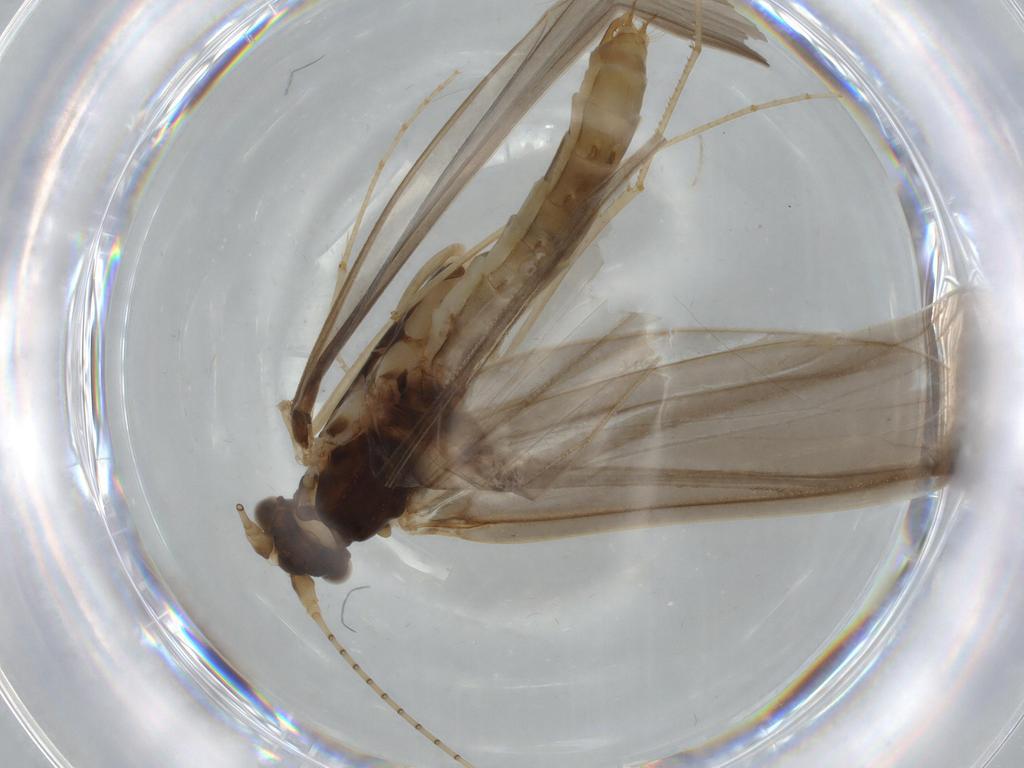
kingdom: Animalia
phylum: Arthropoda
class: Insecta
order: Trichoptera
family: Leptoceridae
